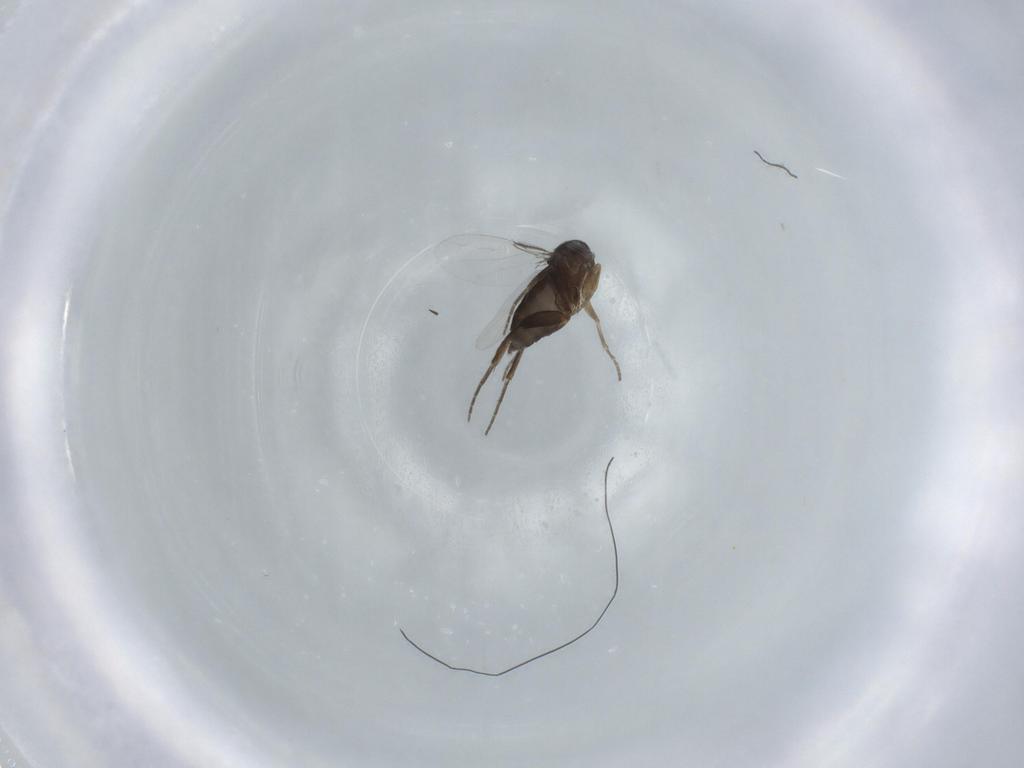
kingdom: Animalia
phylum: Arthropoda
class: Insecta
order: Diptera
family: Phoridae
